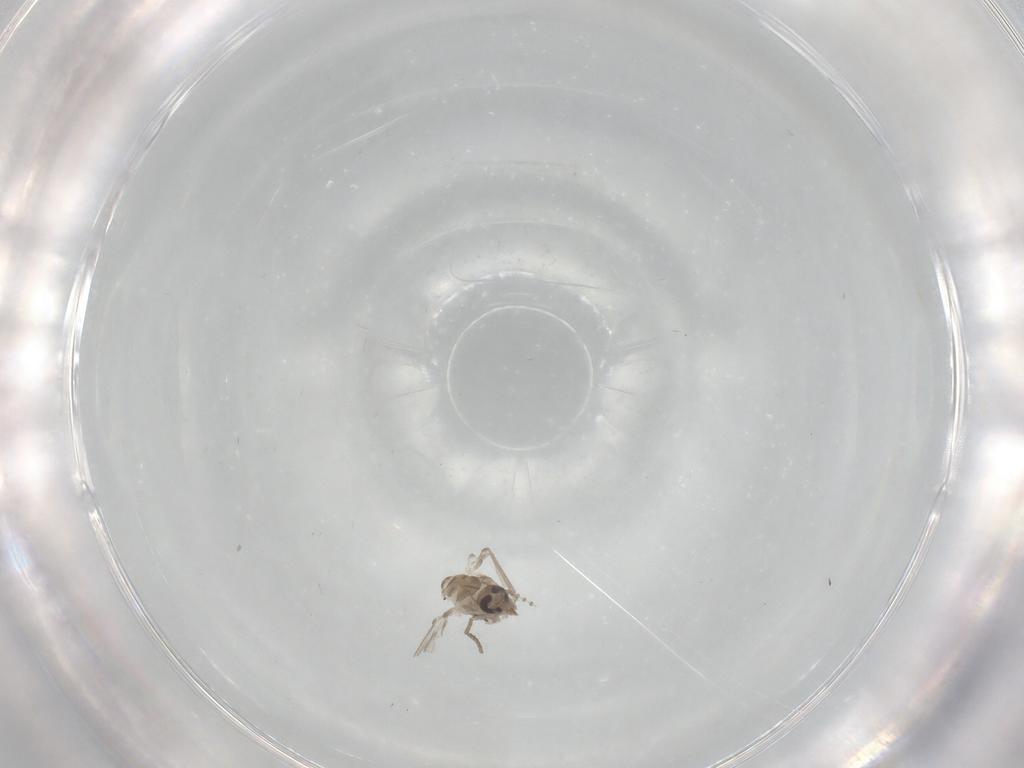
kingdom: Animalia
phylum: Arthropoda
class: Insecta
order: Diptera
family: Psychodidae
